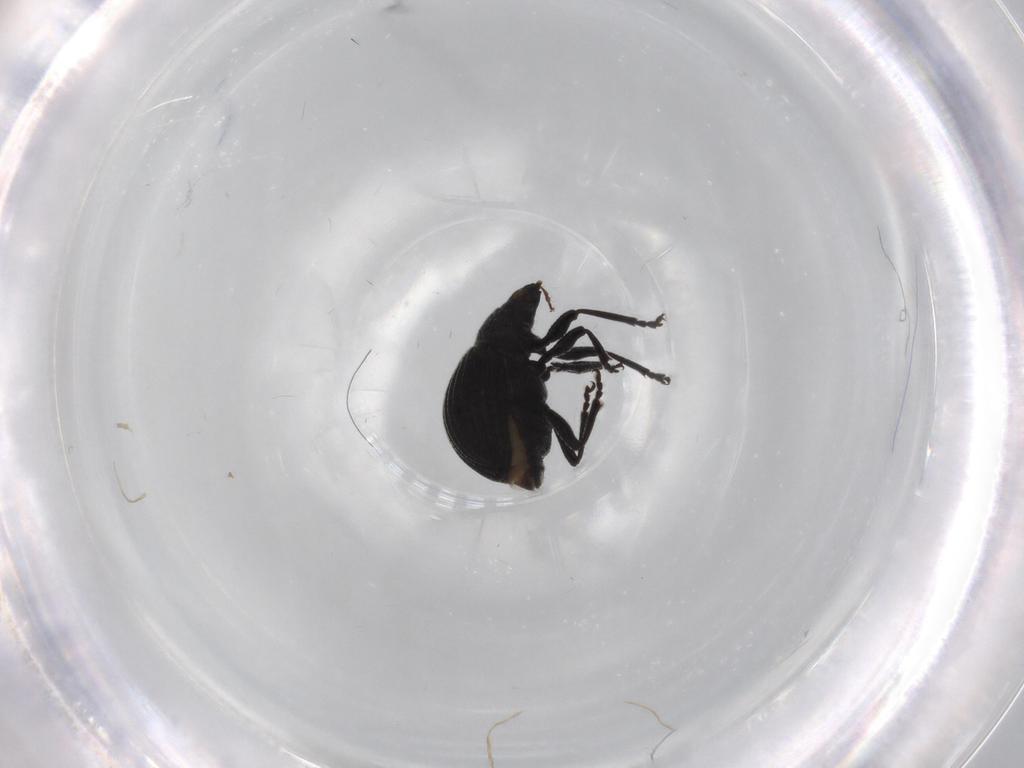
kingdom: Animalia
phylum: Arthropoda
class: Insecta
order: Coleoptera
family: Brentidae
